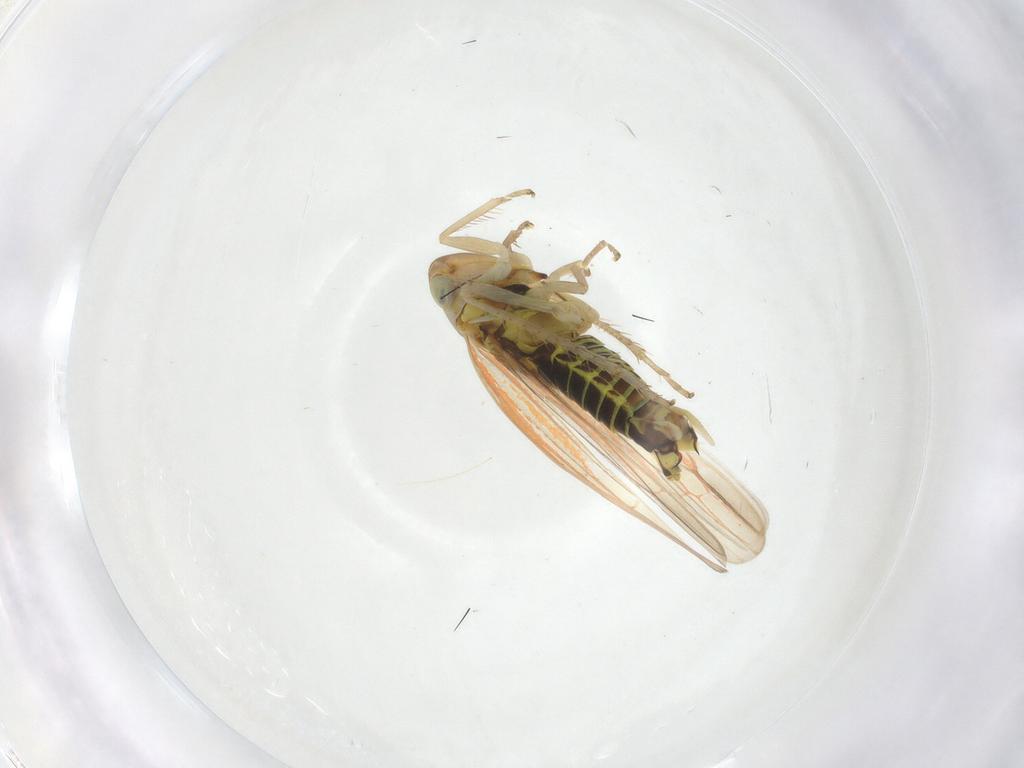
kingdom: Animalia
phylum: Arthropoda
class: Insecta
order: Hemiptera
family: Cicadellidae
